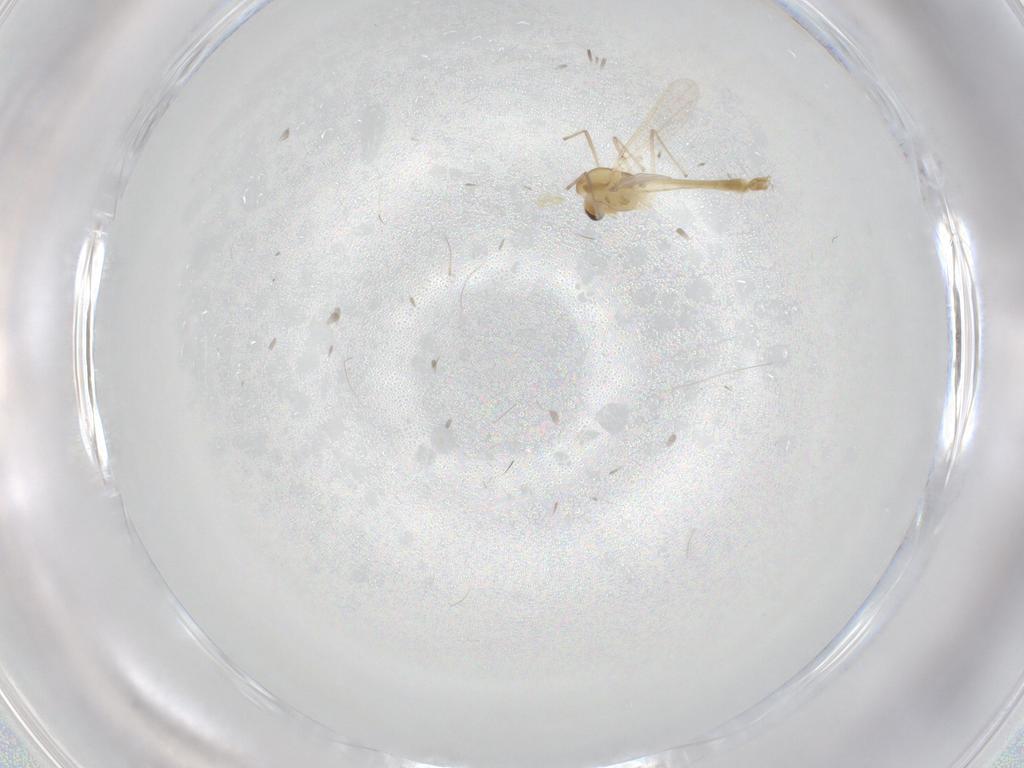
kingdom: Animalia
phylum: Arthropoda
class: Insecta
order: Diptera
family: Chironomidae
